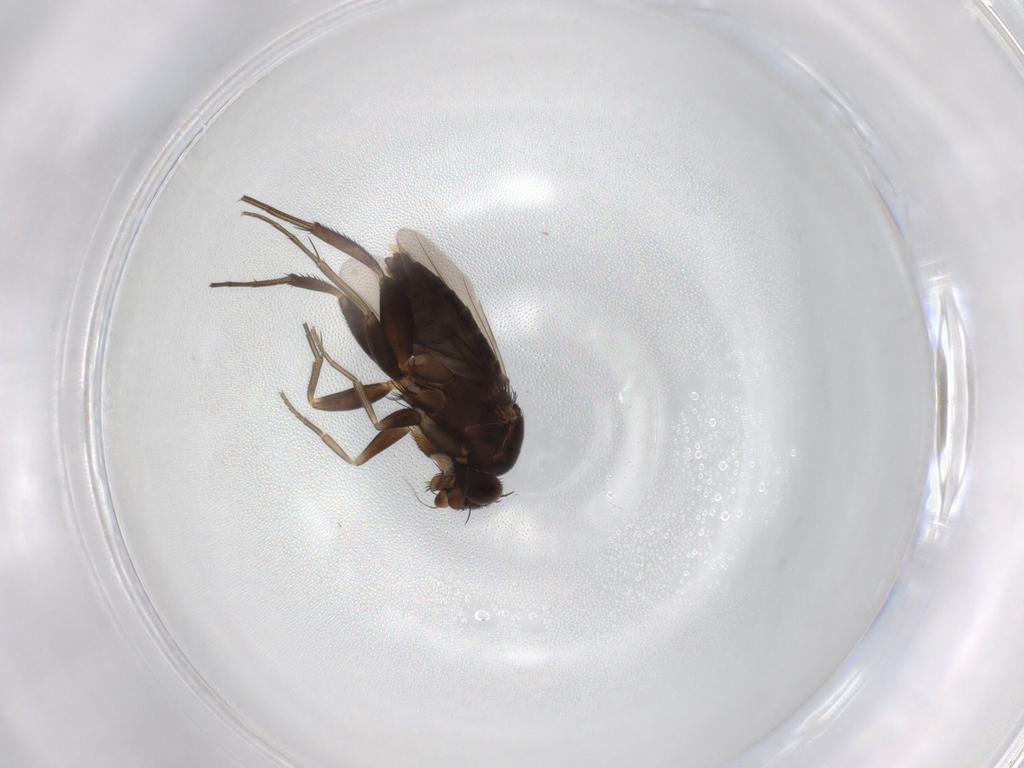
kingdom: Animalia
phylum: Arthropoda
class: Insecta
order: Diptera
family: Phoridae
